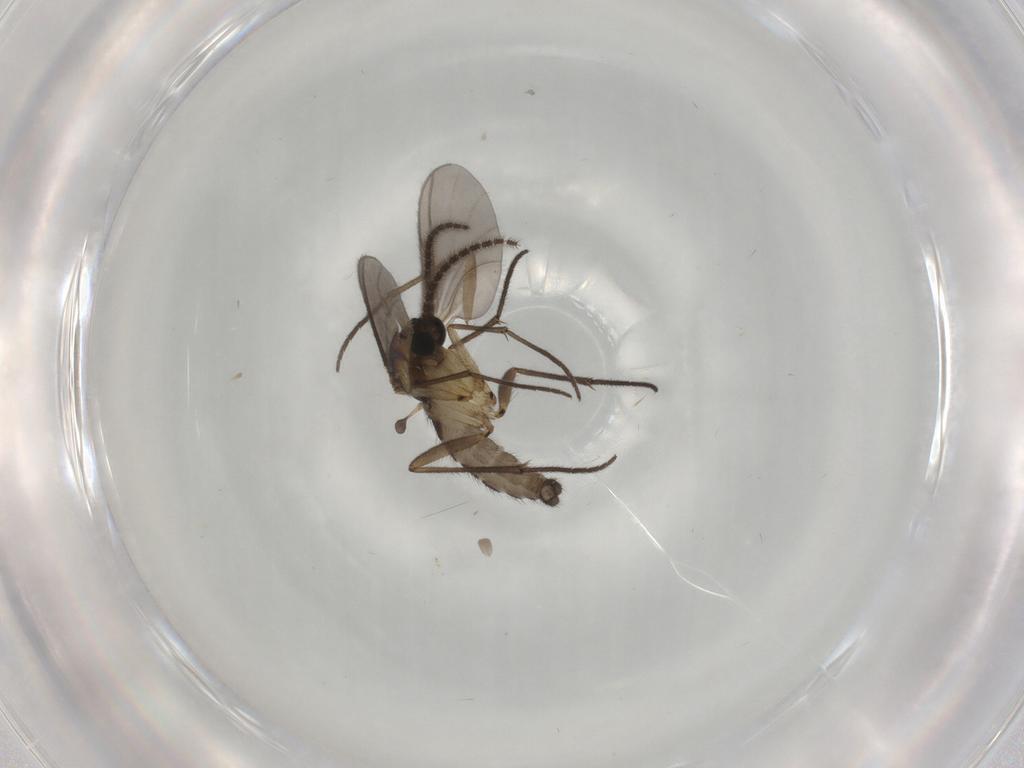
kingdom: Animalia
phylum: Arthropoda
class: Insecta
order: Diptera
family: Sciaridae
